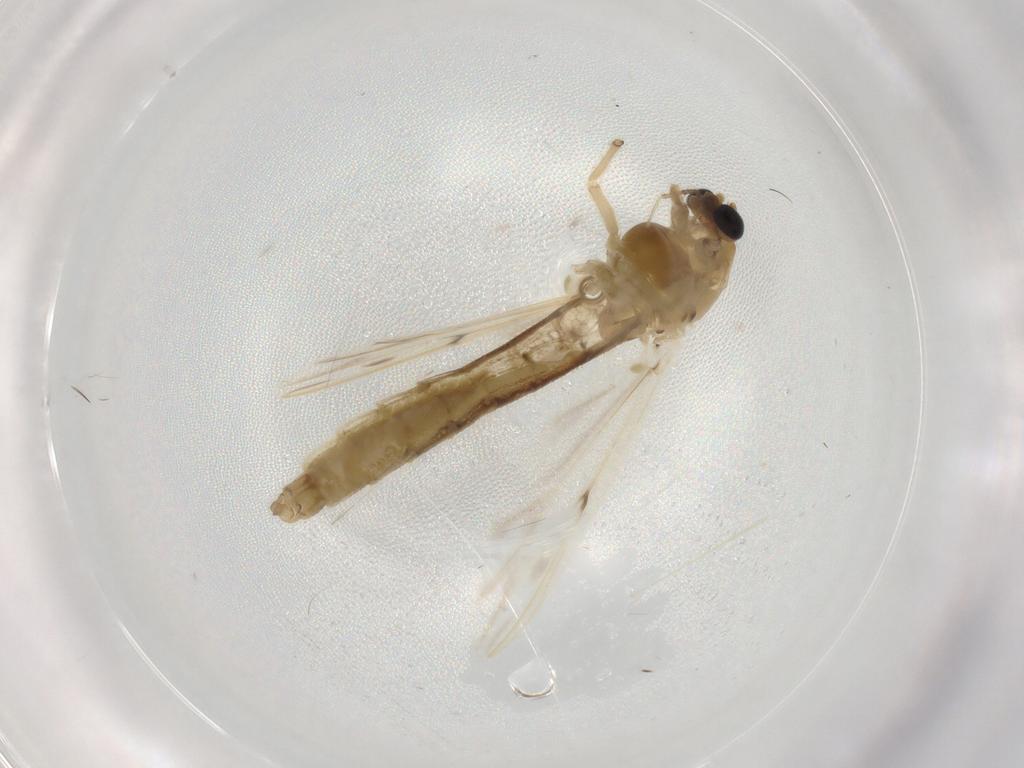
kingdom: Animalia
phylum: Arthropoda
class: Insecta
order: Diptera
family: Chironomidae
